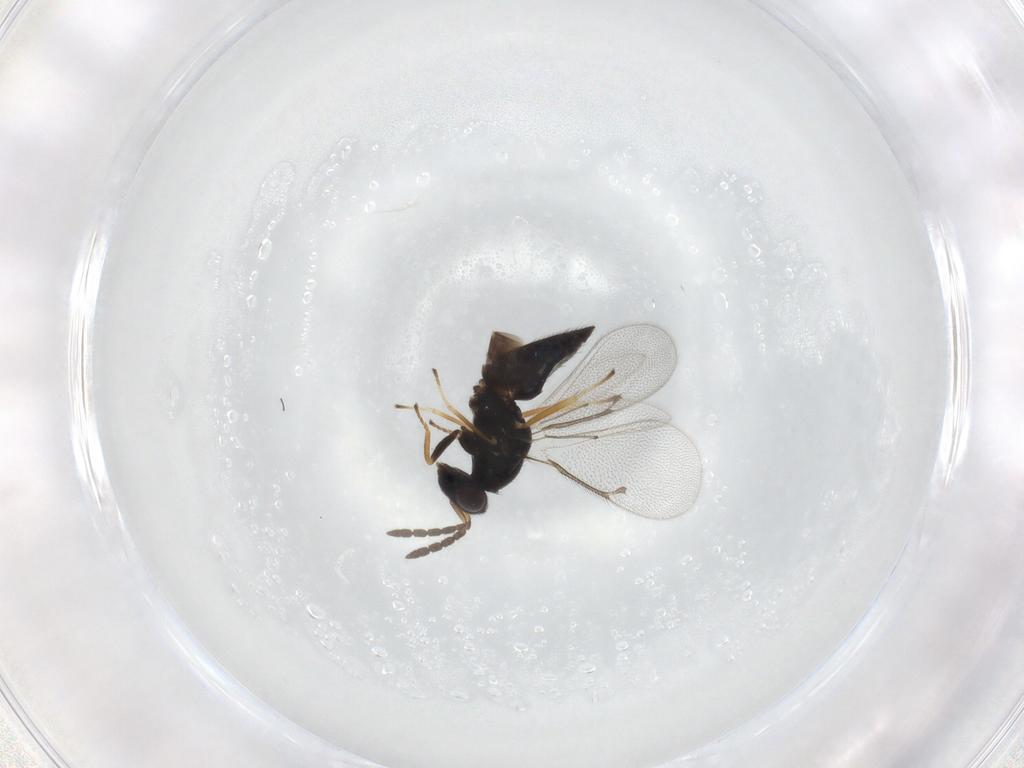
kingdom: Animalia
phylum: Arthropoda
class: Insecta
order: Hymenoptera
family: Eulophidae
